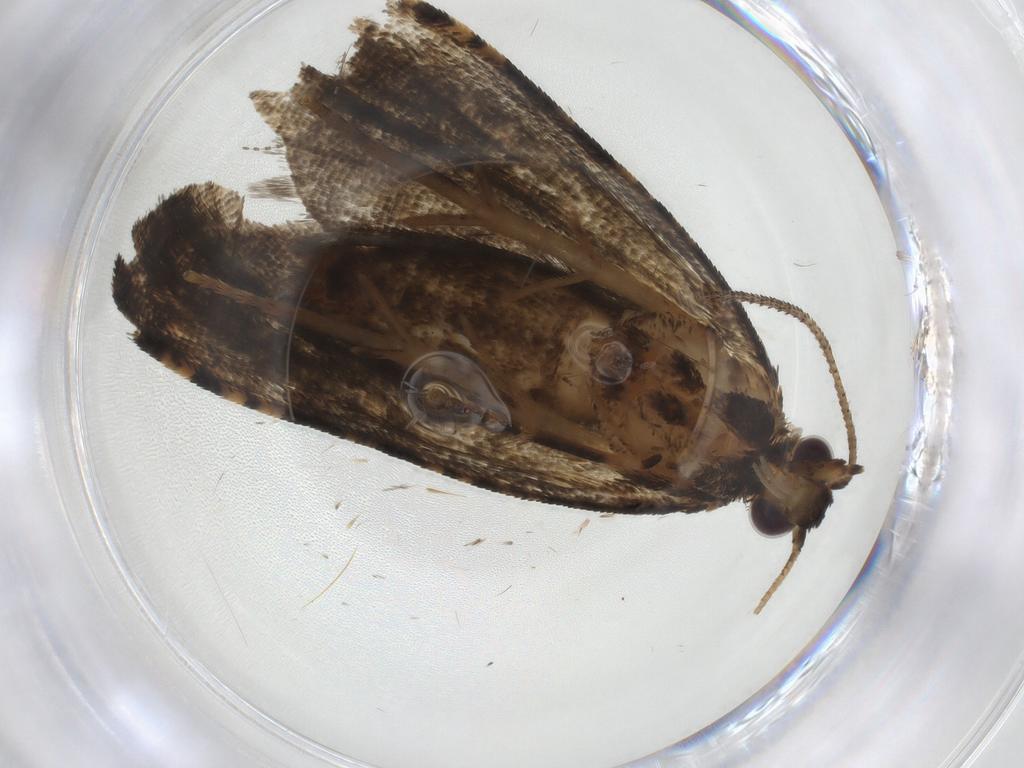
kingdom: Animalia
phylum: Arthropoda
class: Insecta
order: Lepidoptera
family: Tortricidae
